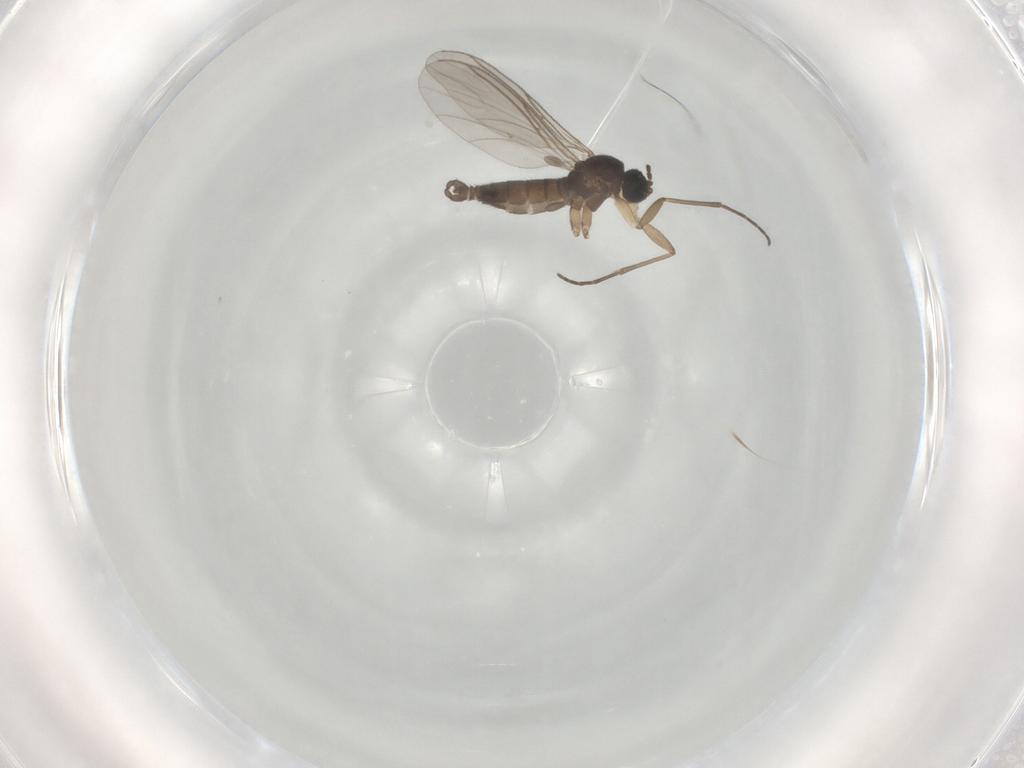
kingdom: Animalia
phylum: Arthropoda
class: Insecta
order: Diptera
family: Sciaridae
